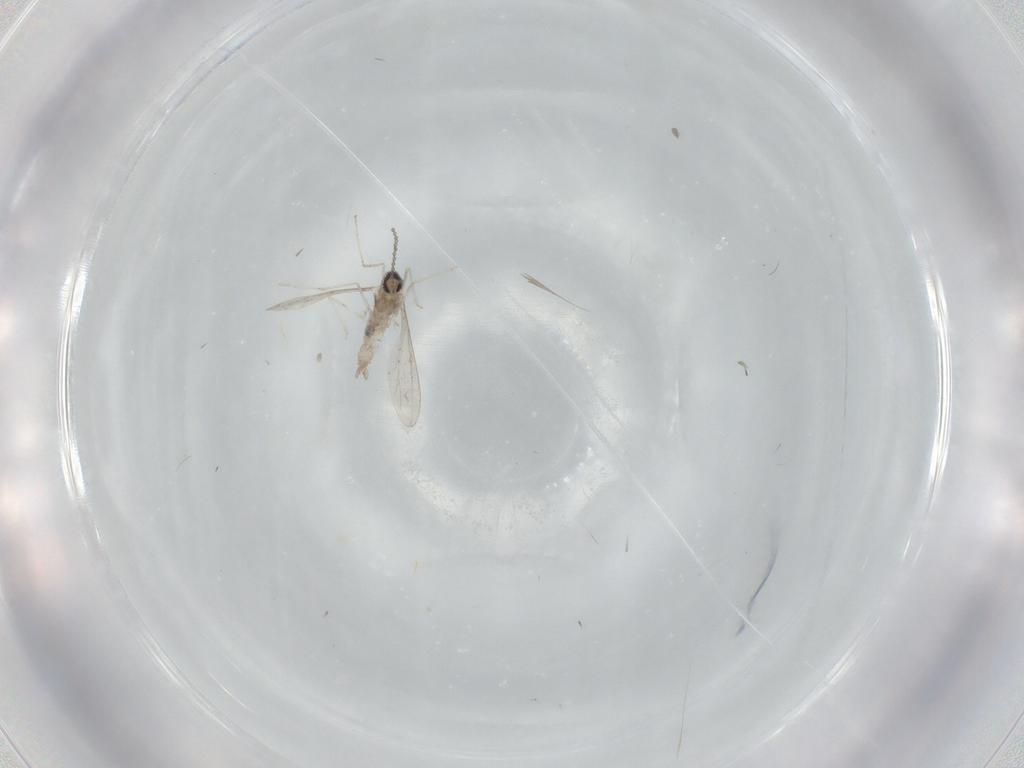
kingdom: Animalia
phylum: Arthropoda
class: Insecta
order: Diptera
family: Cecidomyiidae
